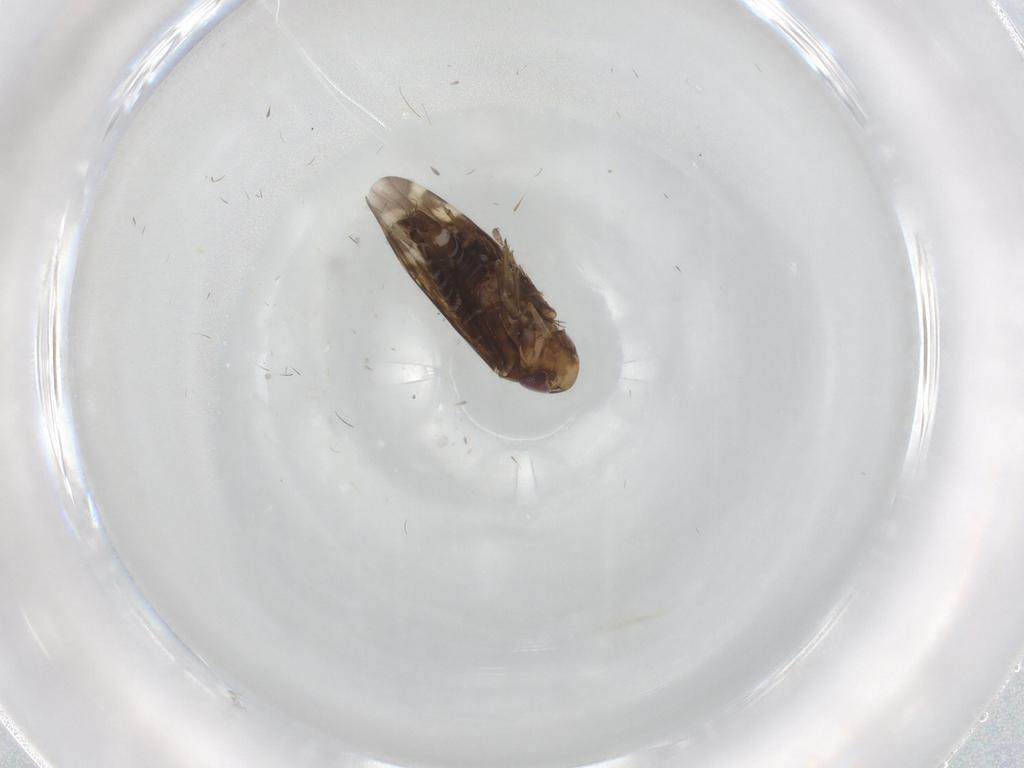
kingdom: Animalia
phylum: Arthropoda
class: Insecta
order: Hemiptera
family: Cicadellidae
